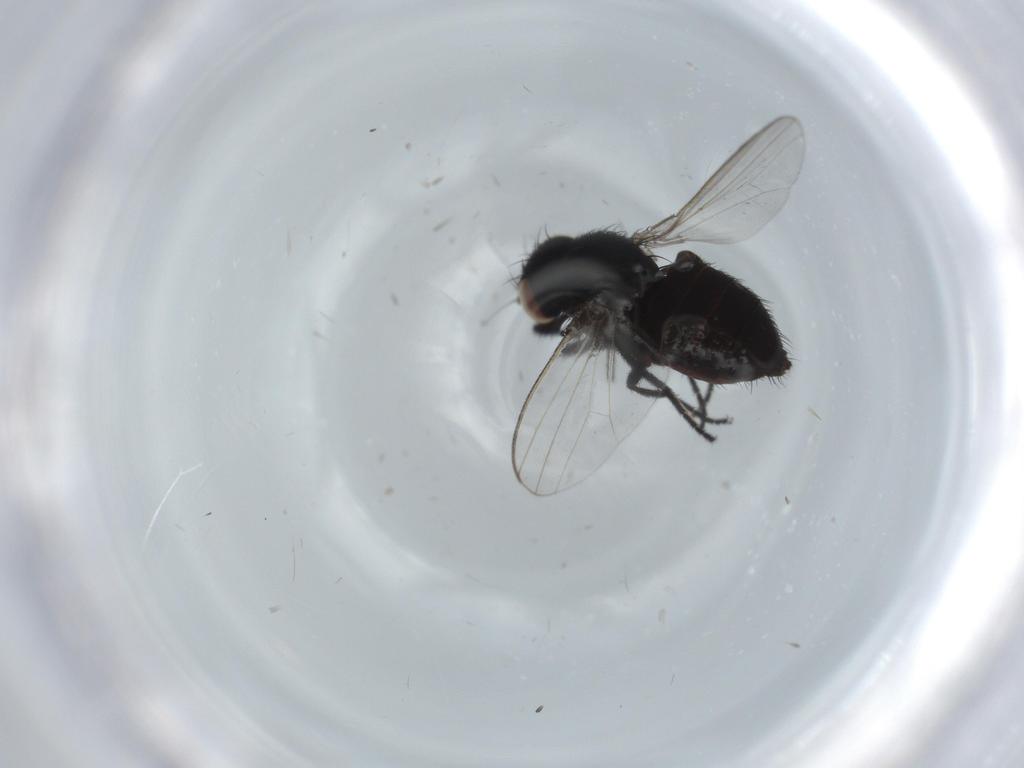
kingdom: Animalia
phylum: Arthropoda
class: Insecta
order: Diptera
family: Milichiidae
